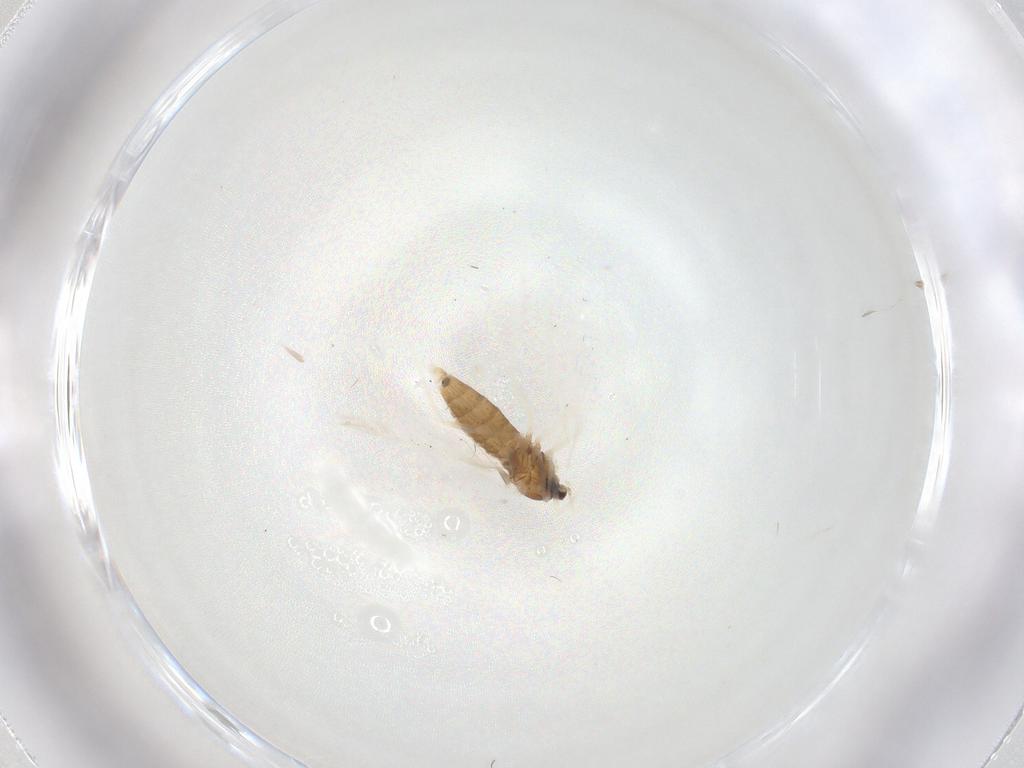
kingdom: Animalia
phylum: Arthropoda
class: Insecta
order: Diptera
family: Cecidomyiidae
